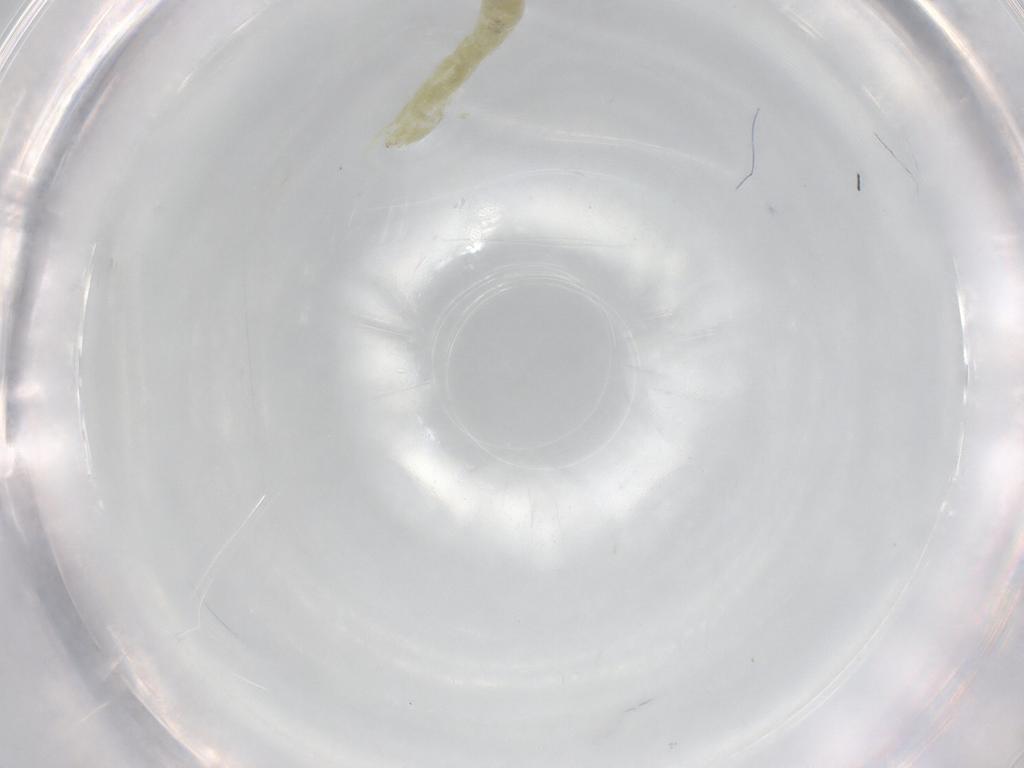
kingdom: Animalia
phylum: Arthropoda
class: Insecta
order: Diptera
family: Chironomidae
